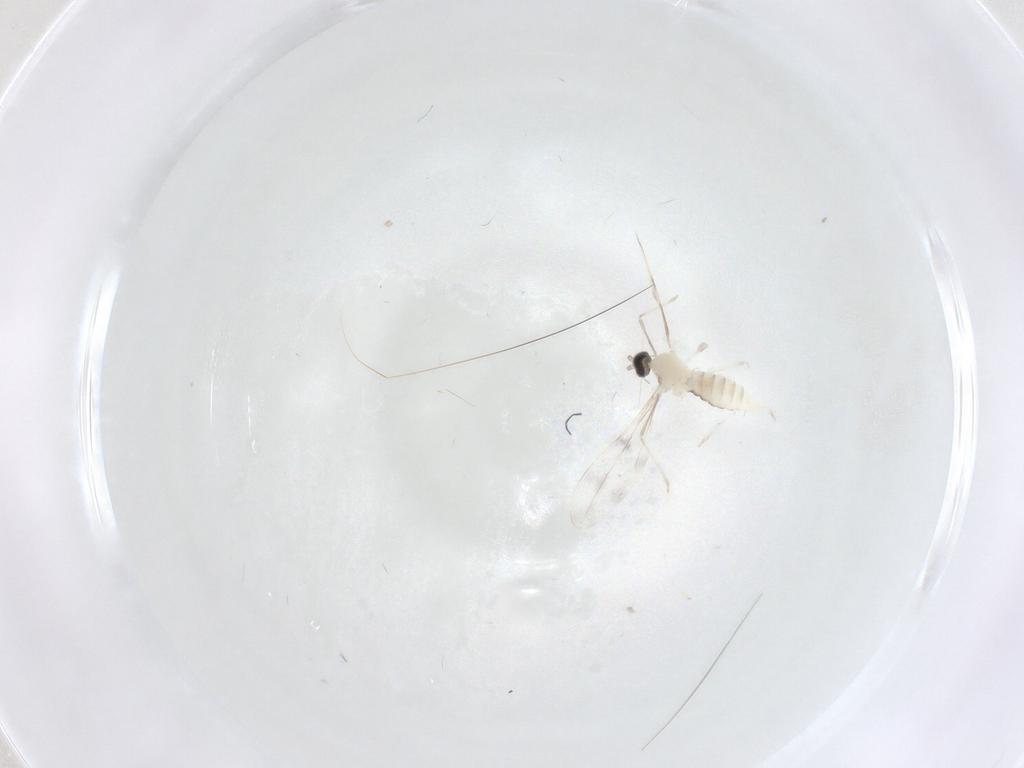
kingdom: Animalia
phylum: Arthropoda
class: Insecta
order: Diptera
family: Cecidomyiidae
